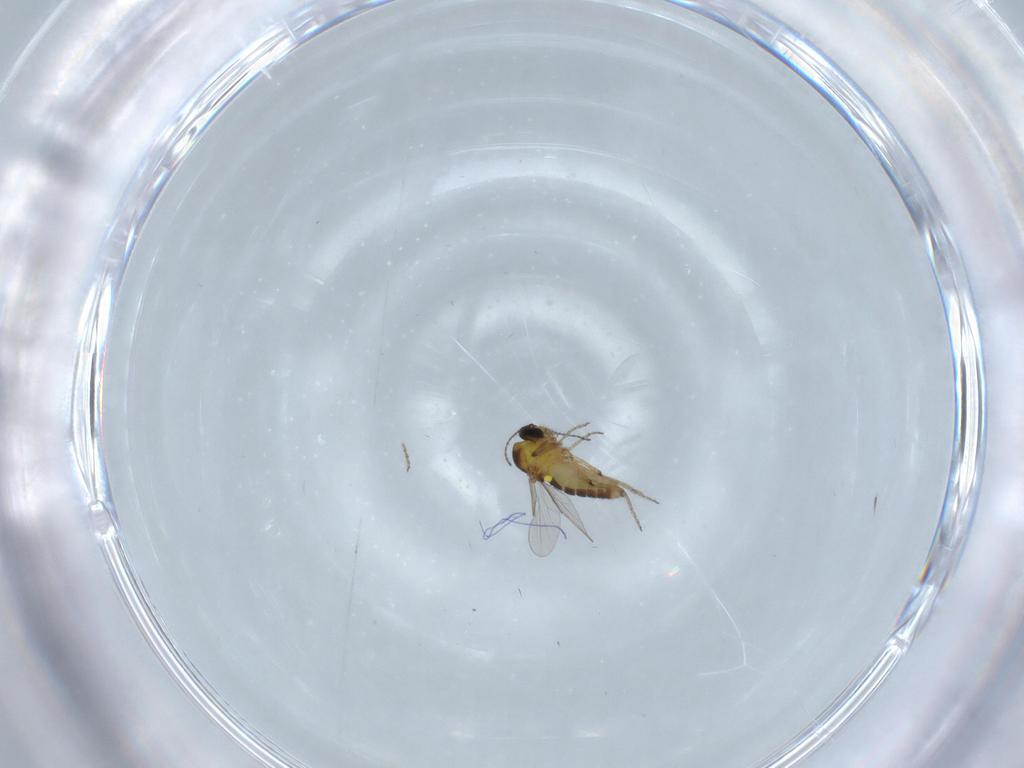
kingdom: Animalia
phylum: Arthropoda
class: Insecta
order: Diptera
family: Ceratopogonidae
